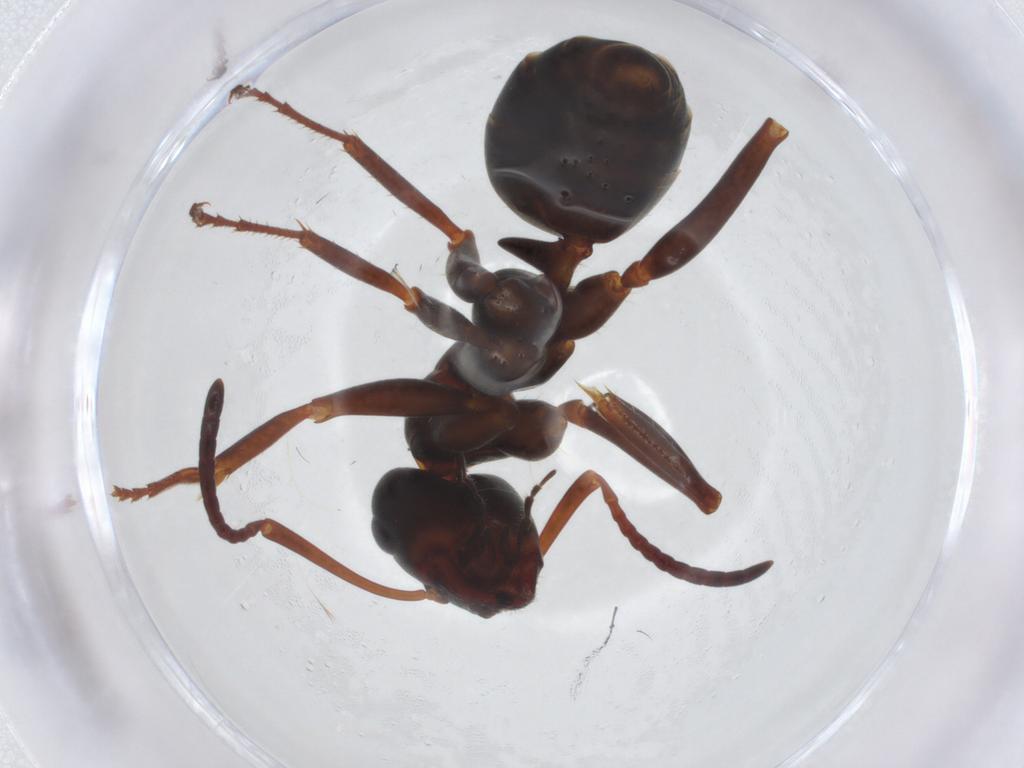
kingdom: Animalia
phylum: Arthropoda
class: Insecta
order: Hymenoptera
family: Formicidae
